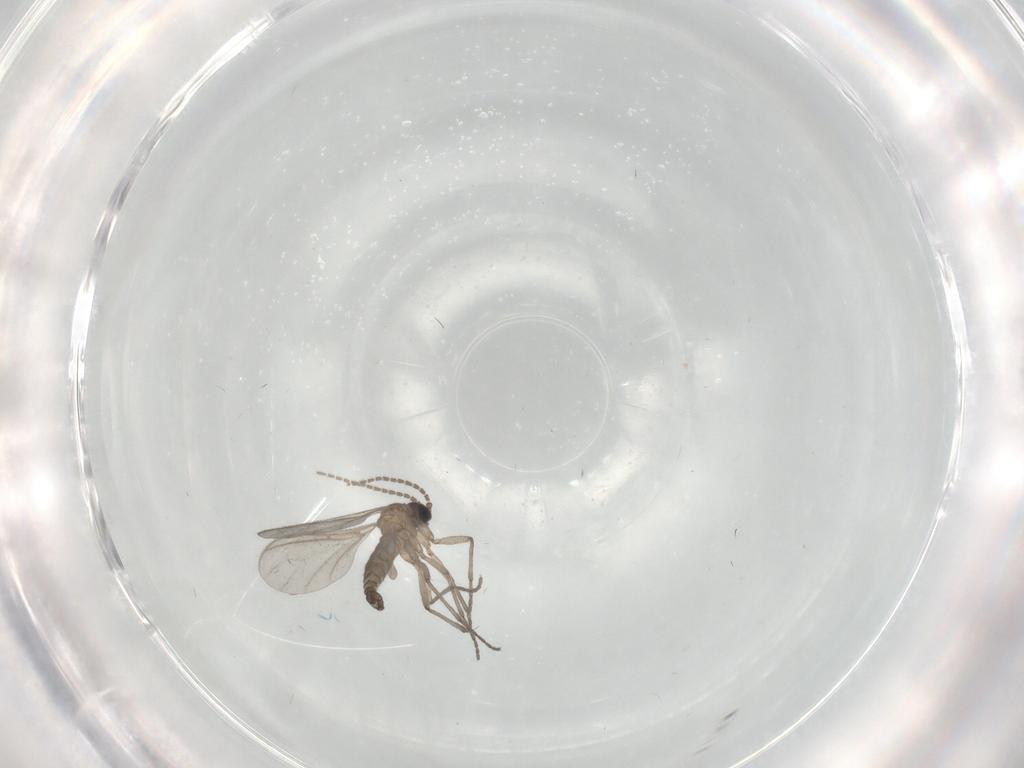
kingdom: Animalia
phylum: Arthropoda
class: Insecta
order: Diptera
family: Sciaridae
